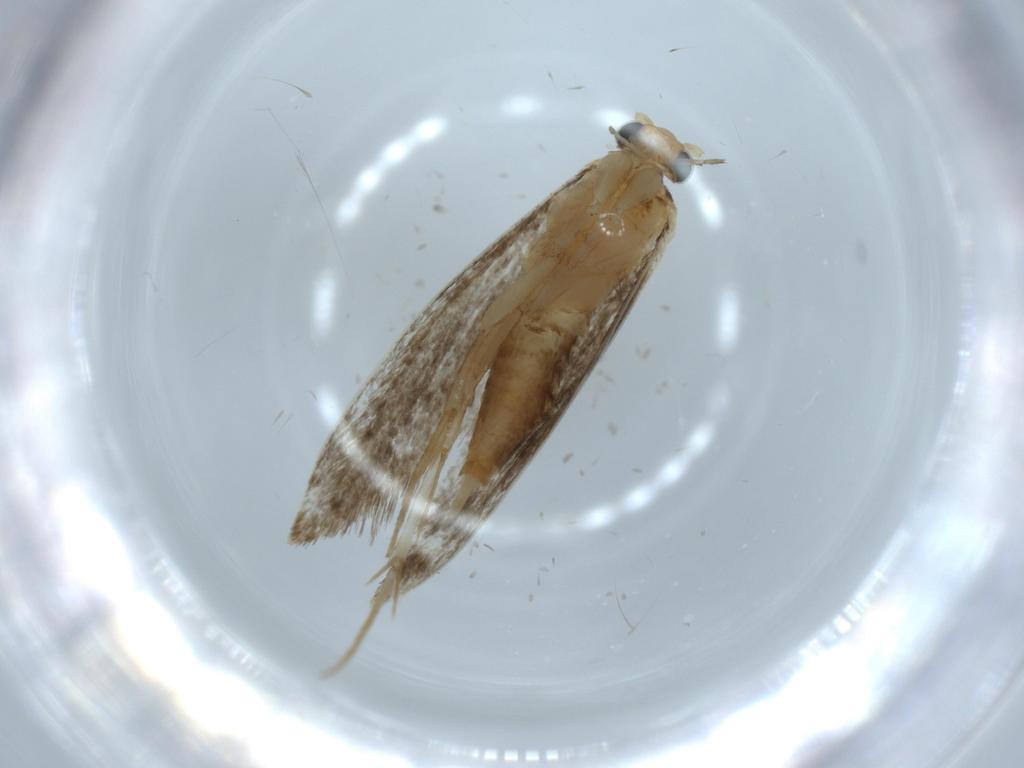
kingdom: Animalia
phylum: Arthropoda
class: Insecta
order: Lepidoptera
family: Tineidae
